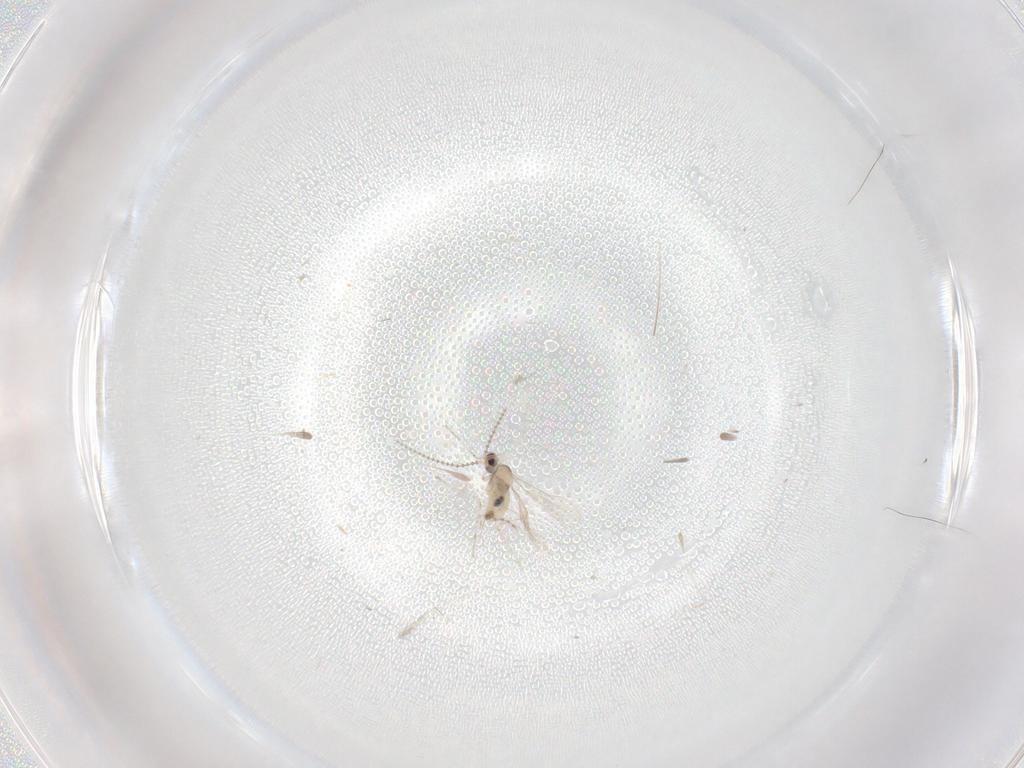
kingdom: Animalia
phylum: Arthropoda
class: Insecta
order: Diptera
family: Cecidomyiidae
